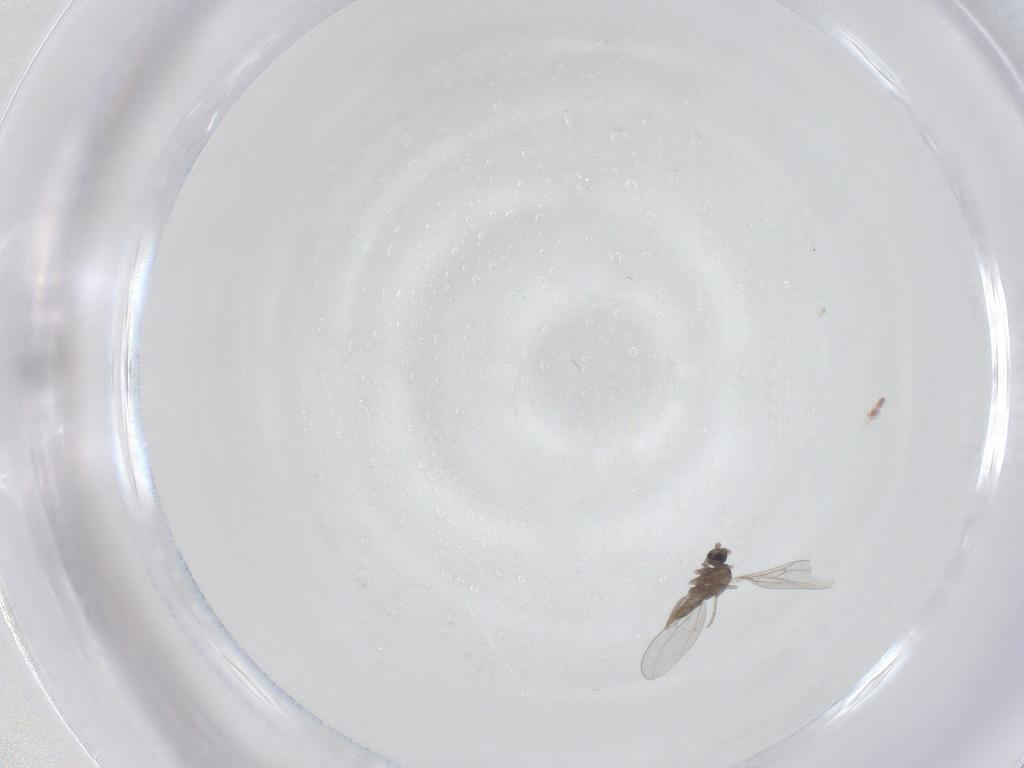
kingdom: Animalia
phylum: Arthropoda
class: Insecta
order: Diptera
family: Cecidomyiidae
